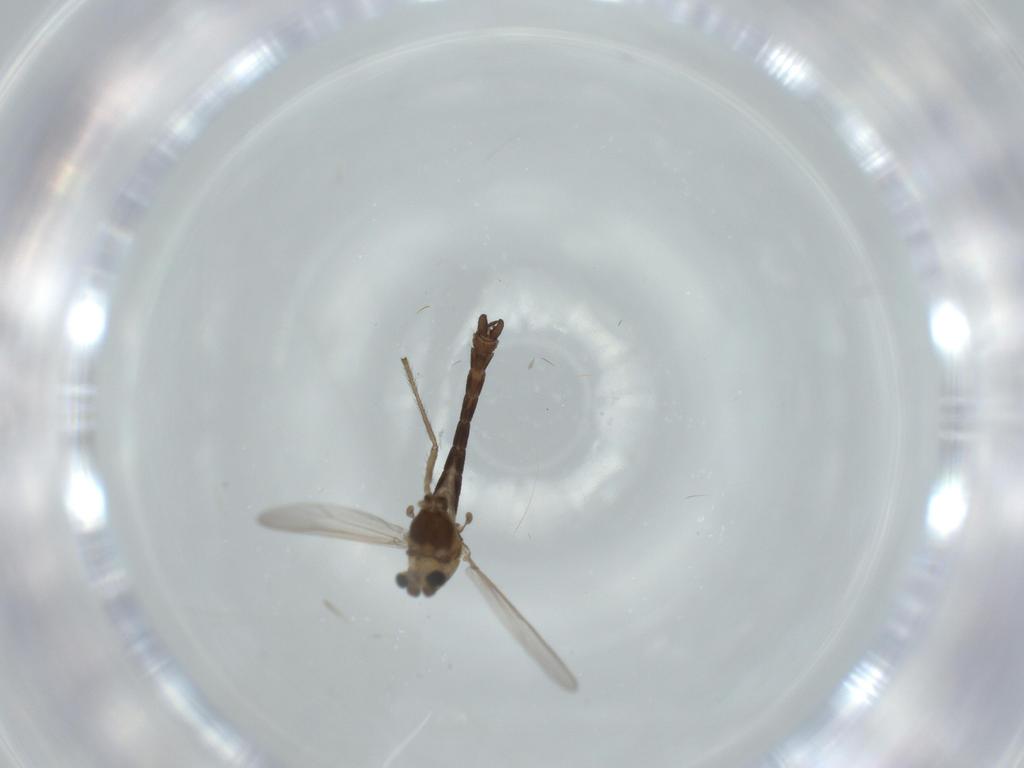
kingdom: Animalia
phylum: Arthropoda
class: Insecta
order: Diptera
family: Chironomidae
